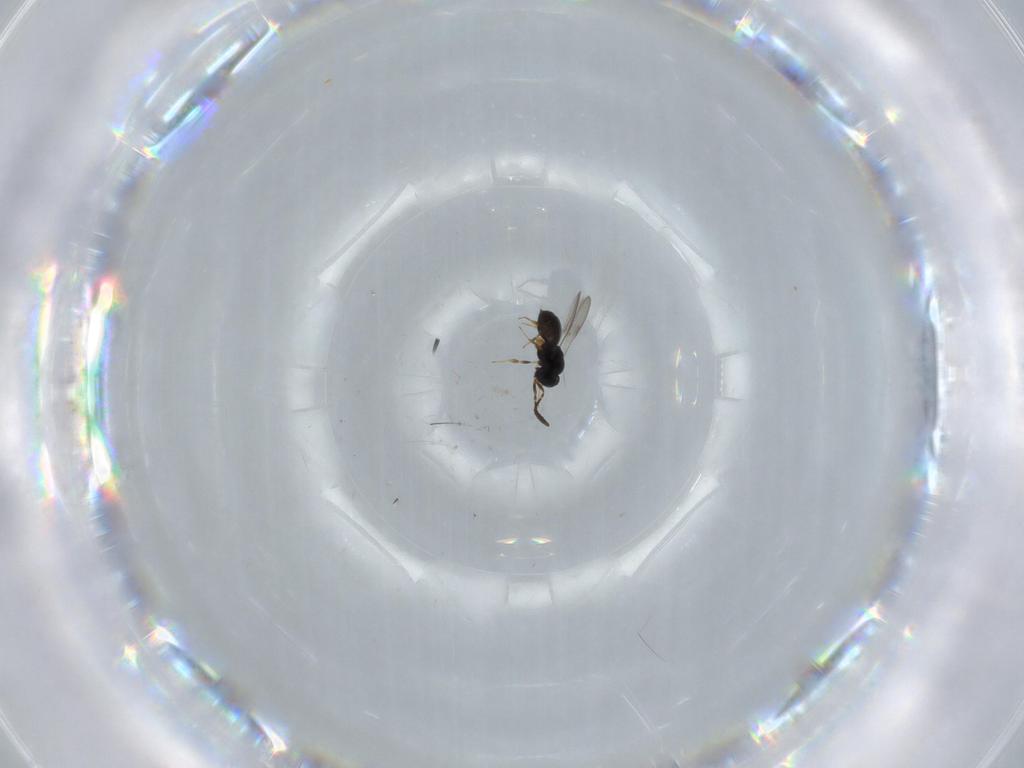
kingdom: Animalia
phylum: Arthropoda
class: Insecta
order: Hymenoptera
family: Scelionidae
